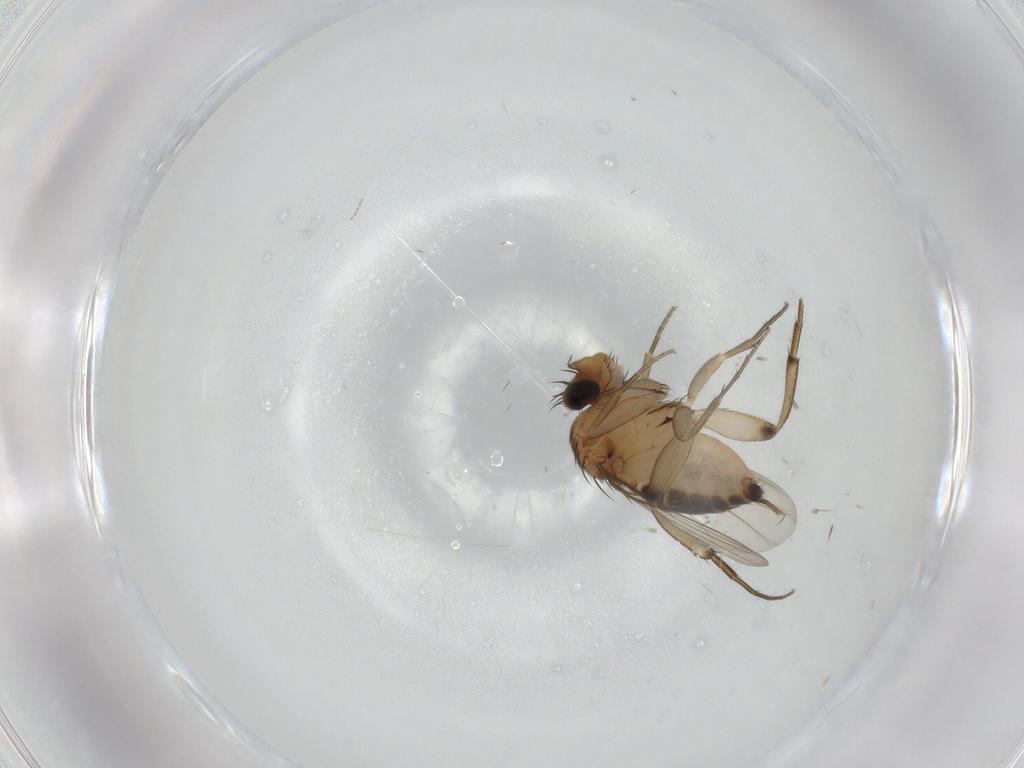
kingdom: Animalia
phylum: Arthropoda
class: Insecta
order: Diptera
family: Cecidomyiidae
